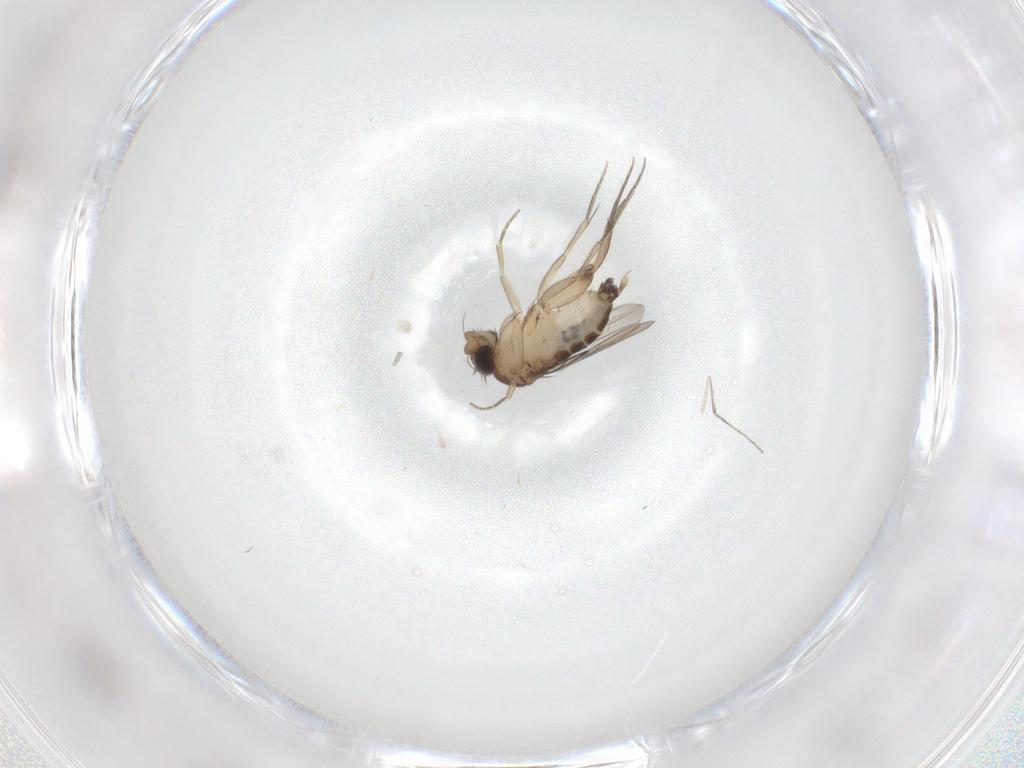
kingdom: Animalia
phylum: Arthropoda
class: Insecta
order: Diptera
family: Phoridae
